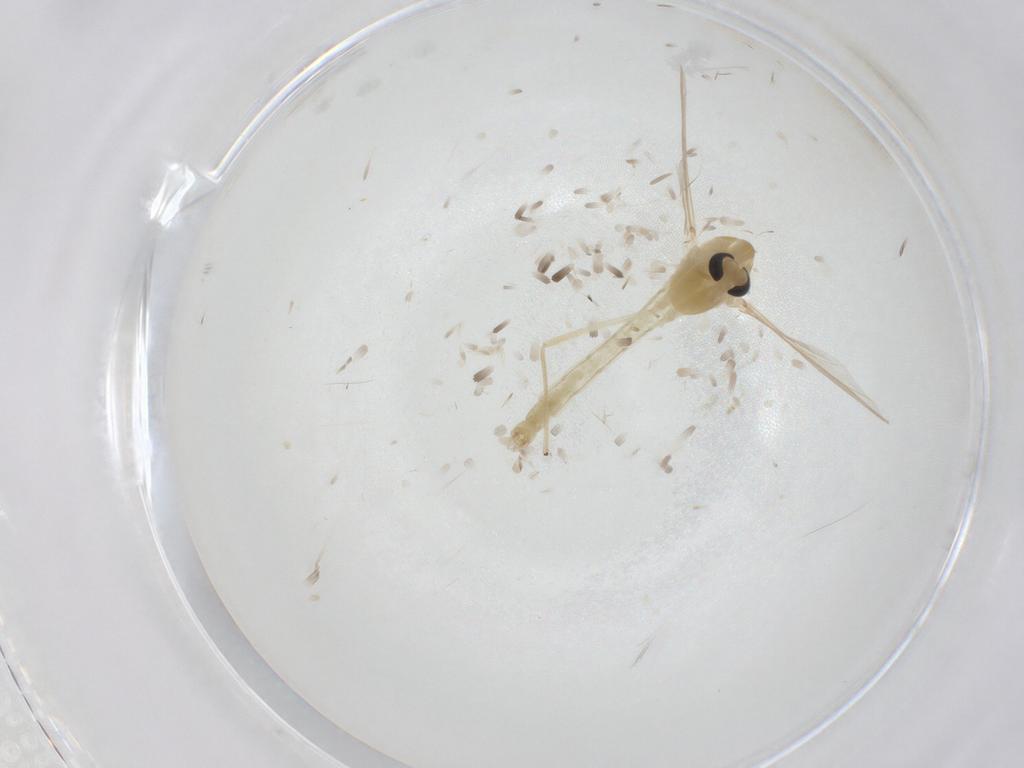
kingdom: Animalia
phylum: Arthropoda
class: Insecta
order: Diptera
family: Chironomidae
